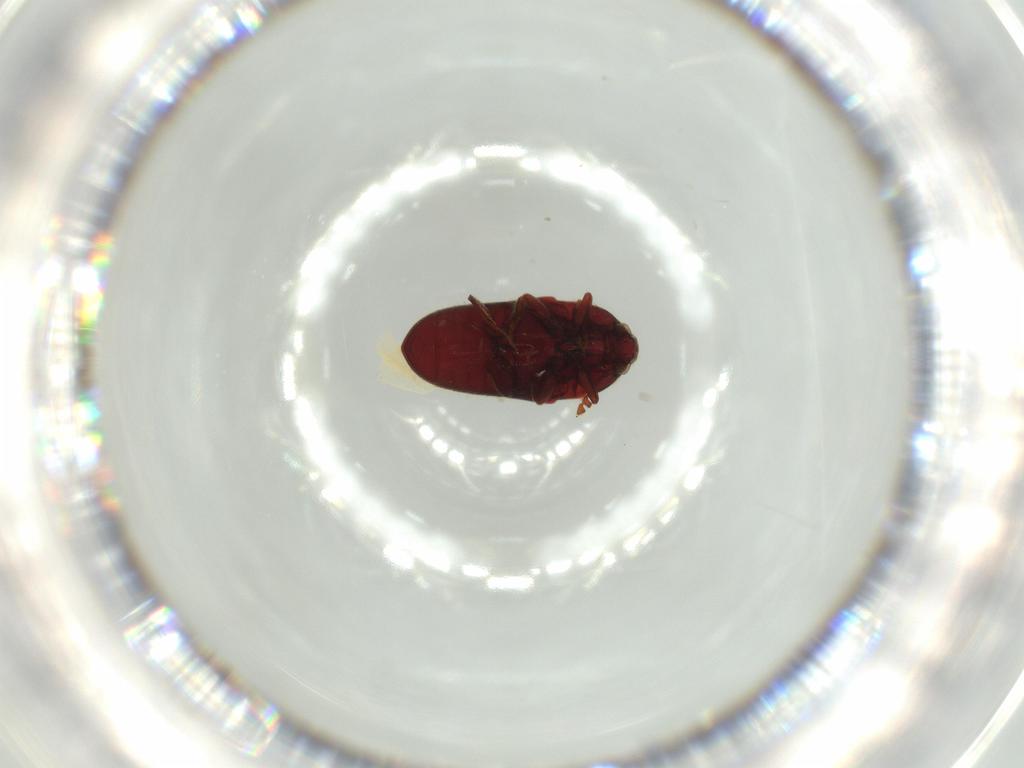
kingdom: Animalia
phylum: Arthropoda
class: Insecta
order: Coleoptera
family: Throscidae
